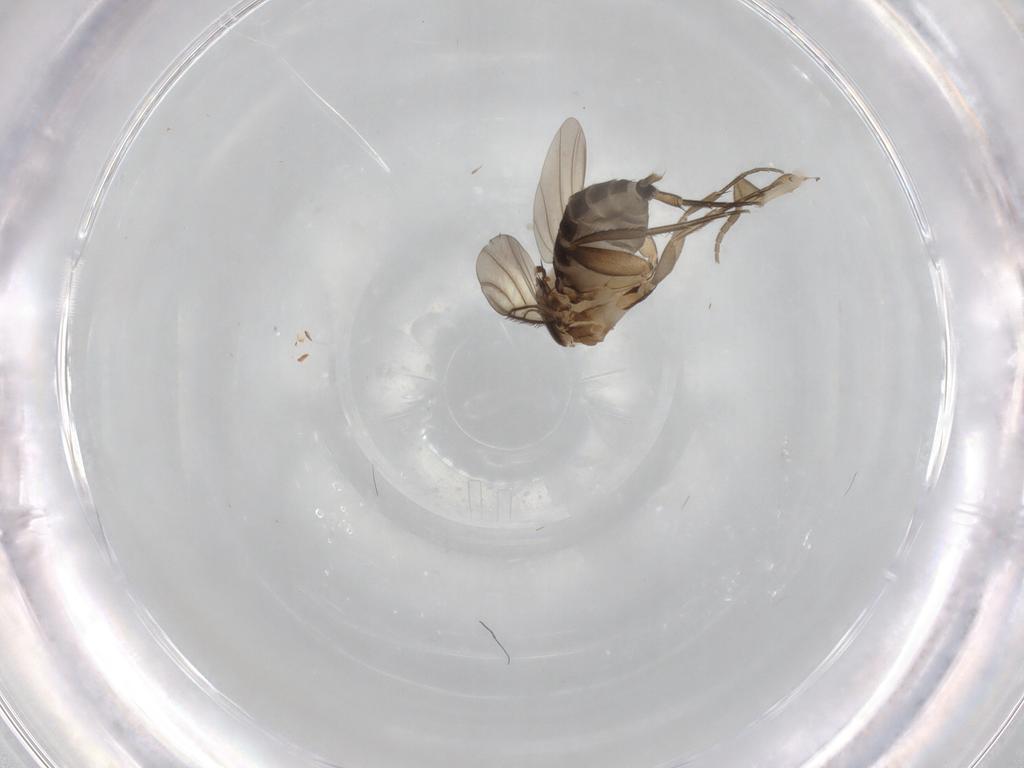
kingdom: Animalia
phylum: Arthropoda
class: Insecta
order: Diptera
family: Phoridae
